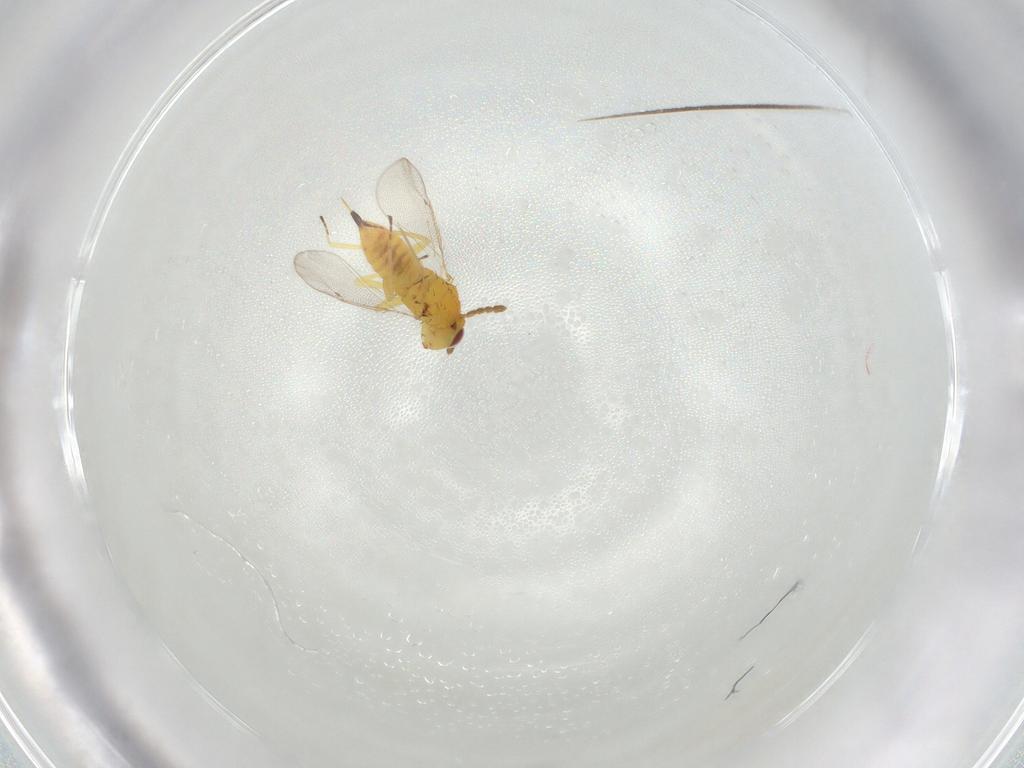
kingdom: Animalia
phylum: Arthropoda
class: Insecta
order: Hymenoptera
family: Eulophidae
